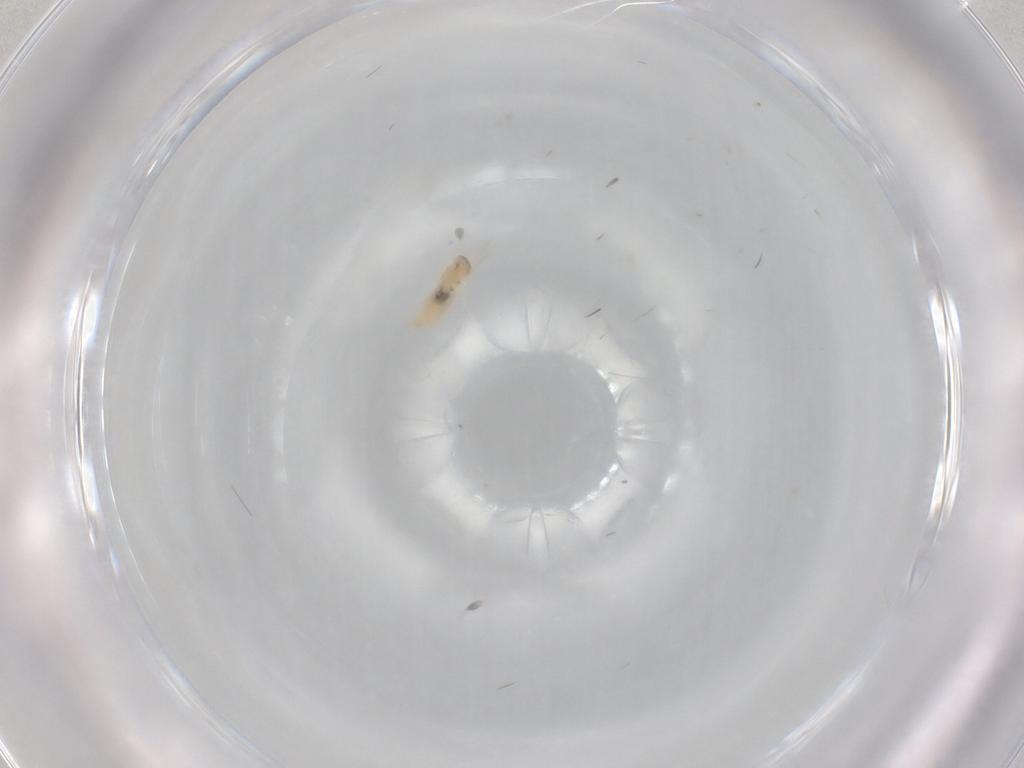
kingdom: Animalia
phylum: Arthropoda
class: Insecta
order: Diptera
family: Cecidomyiidae
